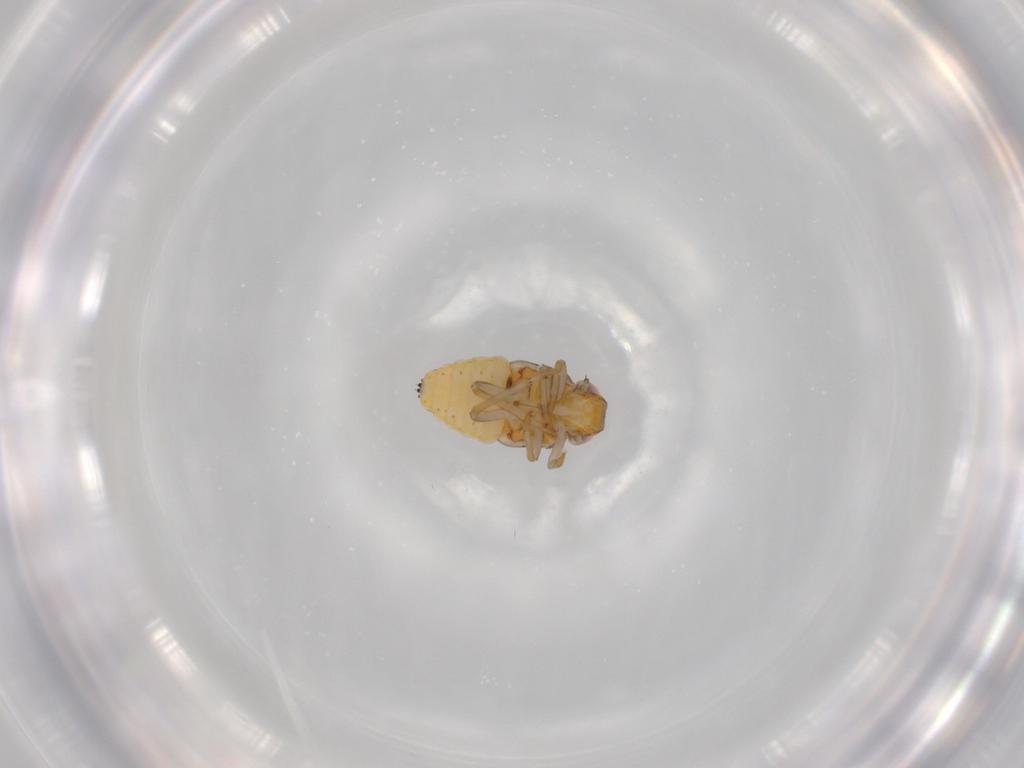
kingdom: Animalia
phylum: Arthropoda
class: Insecta
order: Hemiptera
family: Issidae
